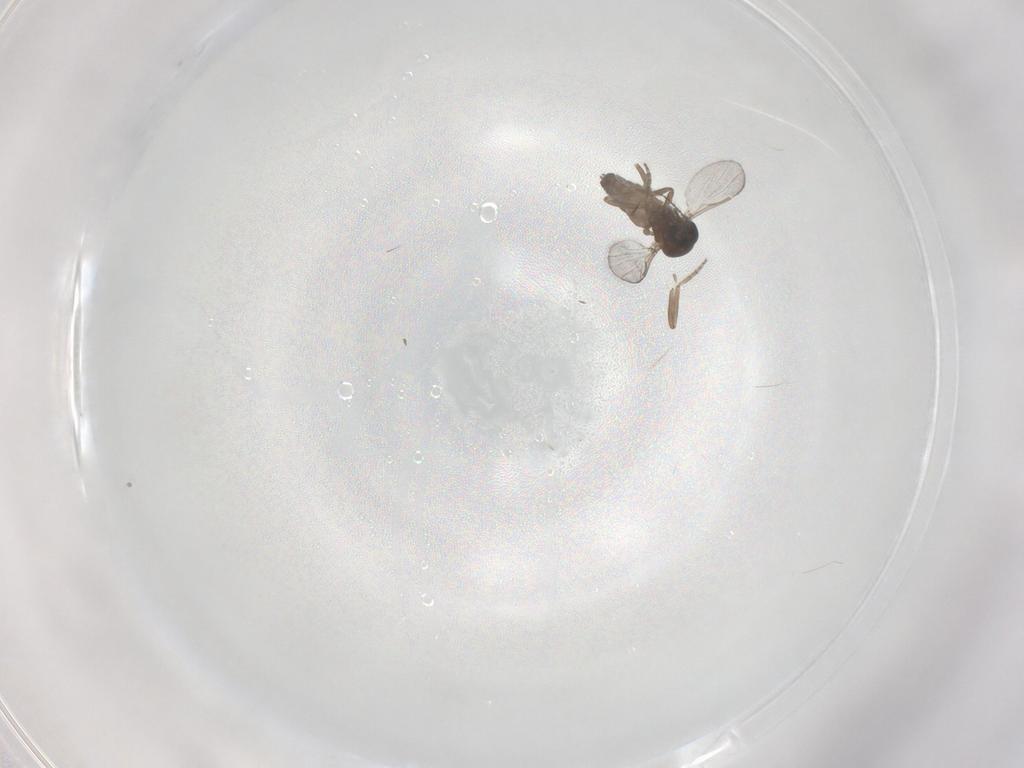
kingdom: Animalia
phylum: Arthropoda
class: Insecta
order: Diptera
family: Ceratopogonidae
